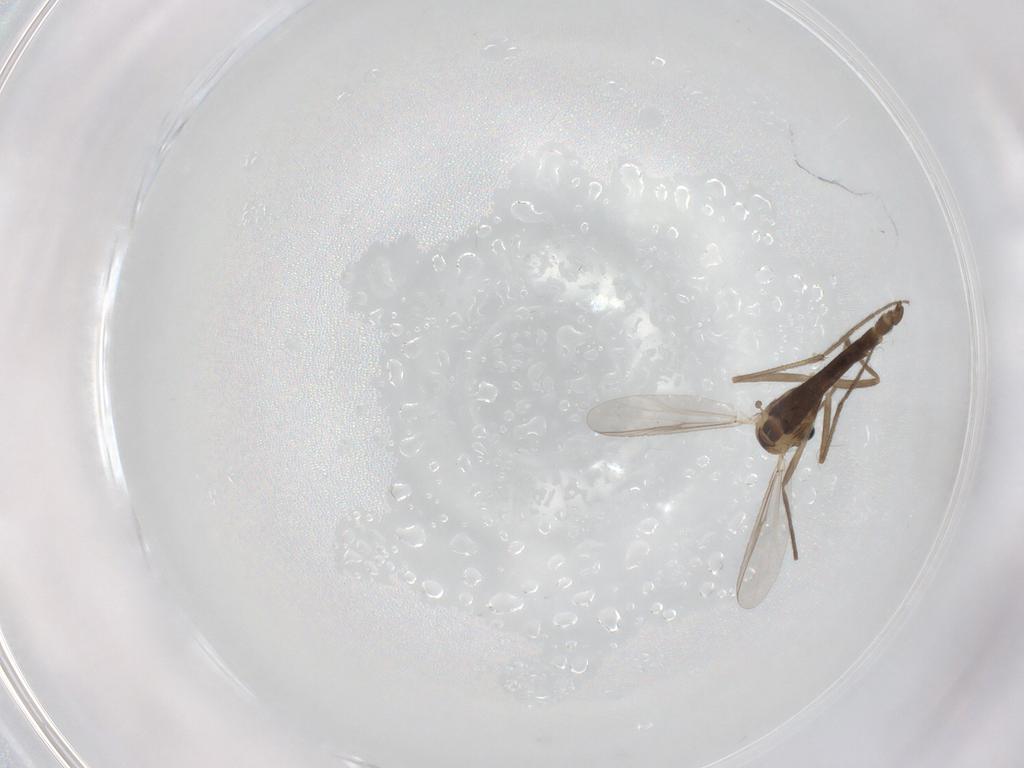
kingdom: Animalia
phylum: Arthropoda
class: Insecta
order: Diptera
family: Chironomidae
